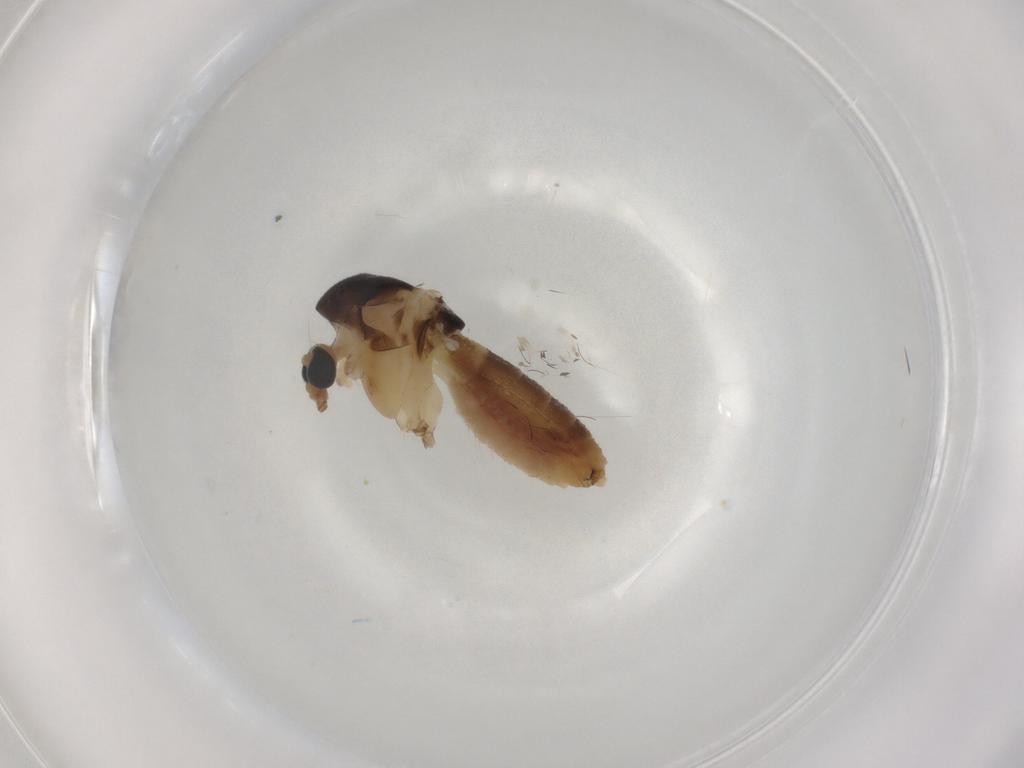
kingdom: Animalia
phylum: Arthropoda
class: Insecta
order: Diptera
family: Chironomidae
